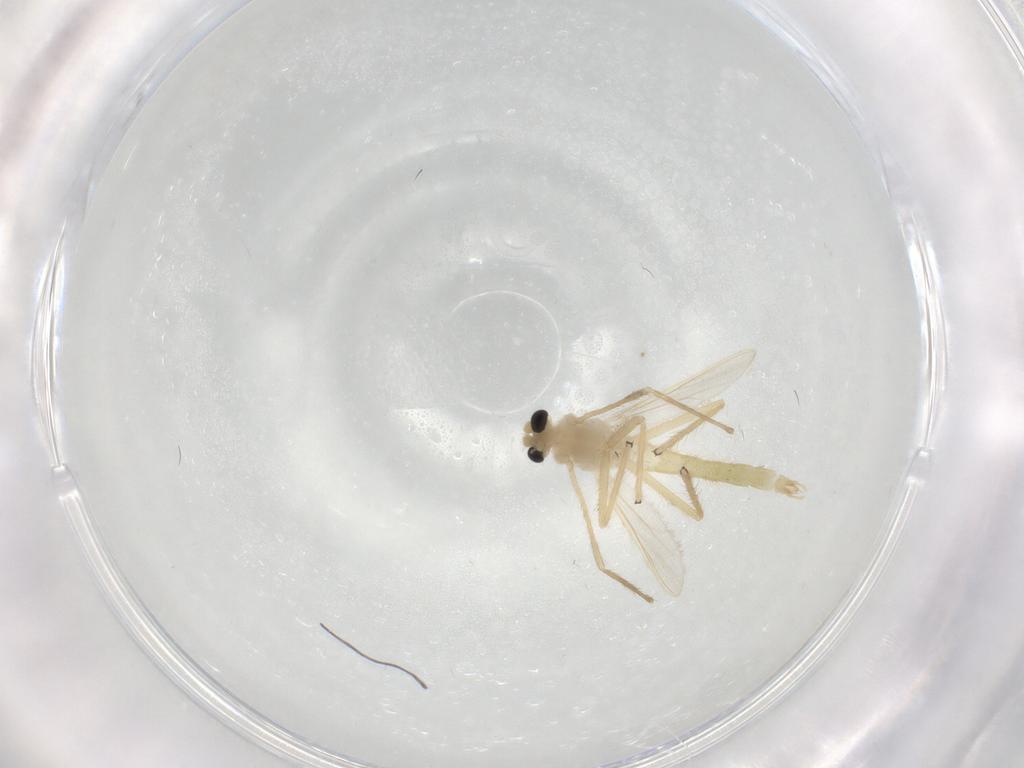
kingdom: Animalia
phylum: Arthropoda
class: Insecta
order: Diptera
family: Chironomidae
